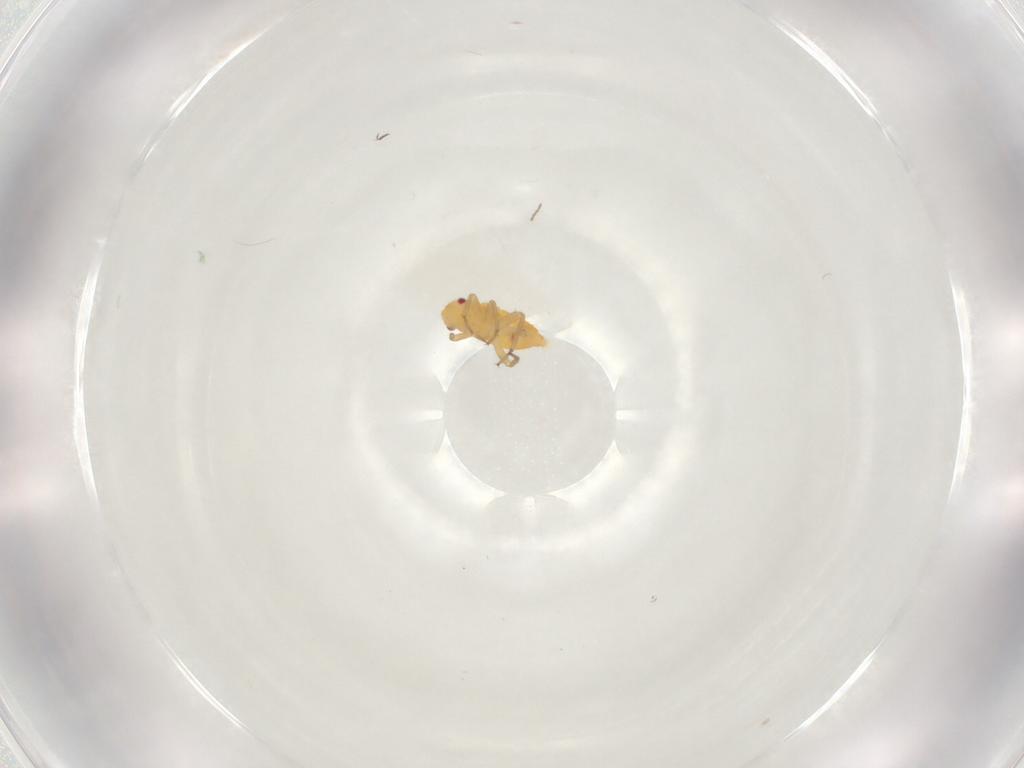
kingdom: Animalia
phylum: Arthropoda
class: Insecta
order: Hemiptera
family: Miridae
